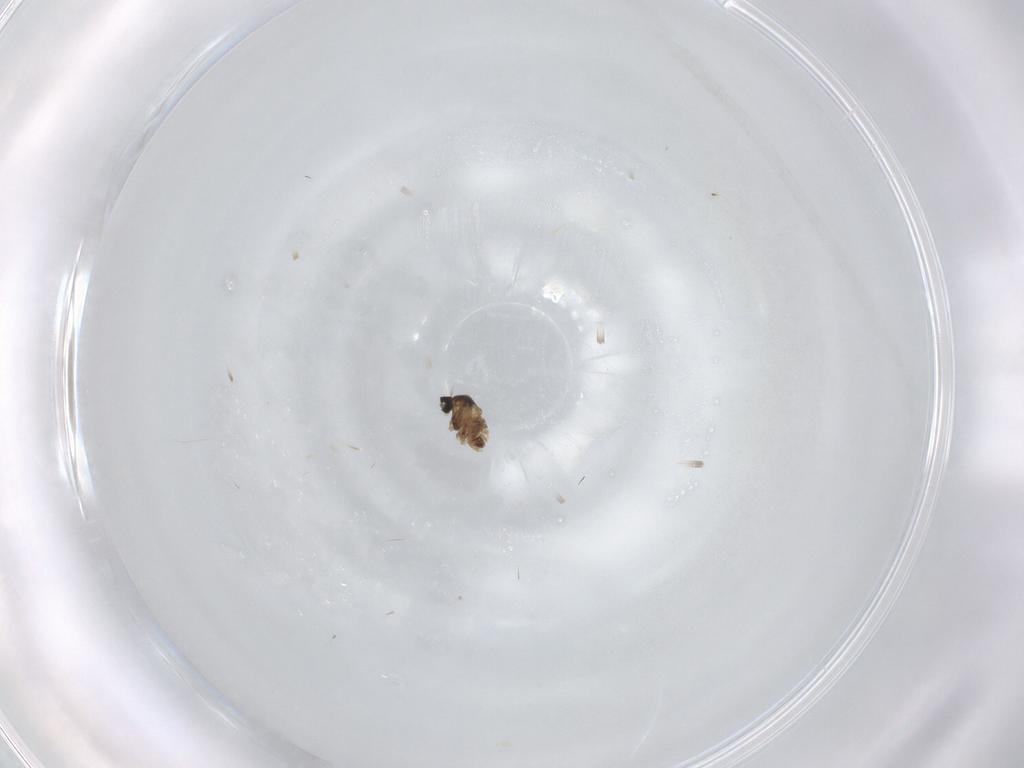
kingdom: Animalia
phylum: Arthropoda
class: Insecta
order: Diptera
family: Cecidomyiidae
